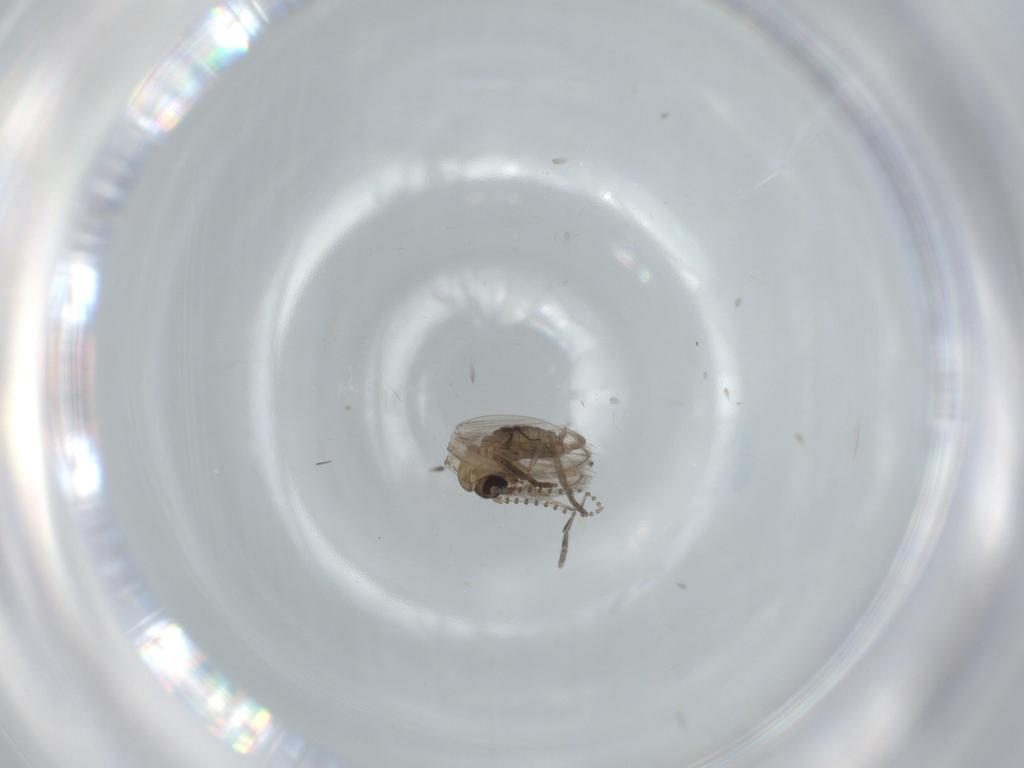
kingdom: Animalia
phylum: Arthropoda
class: Insecta
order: Diptera
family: Psychodidae
